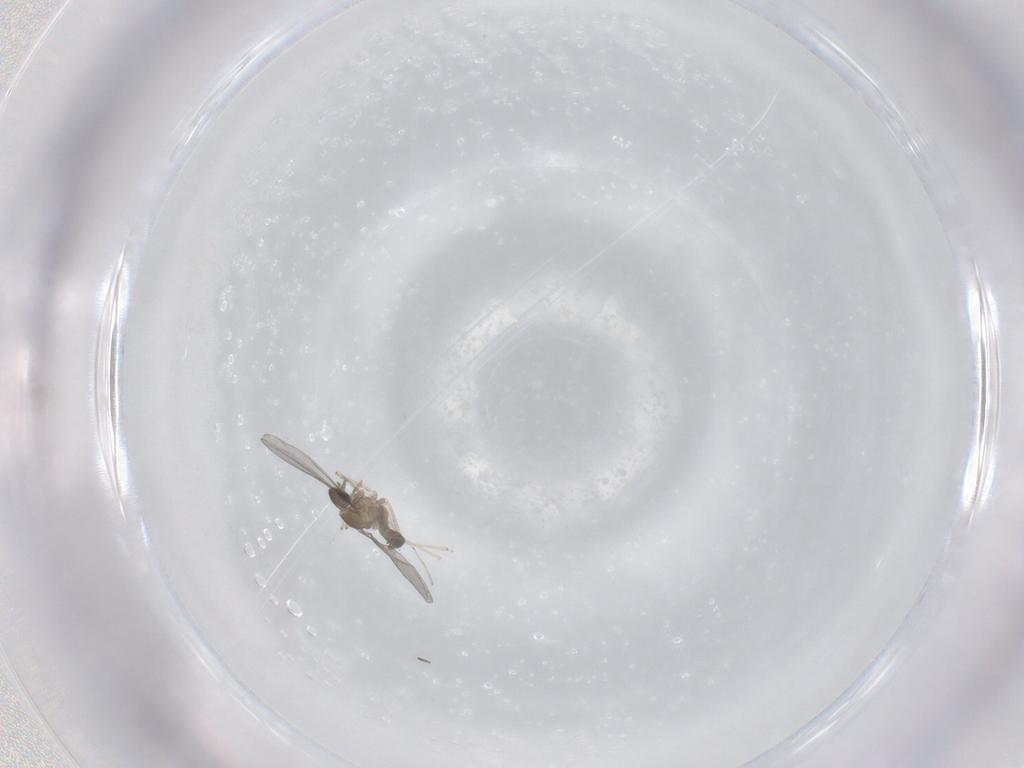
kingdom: Animalia
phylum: Arthropoda
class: Insecta
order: Diptera
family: Cecidomyiidae
